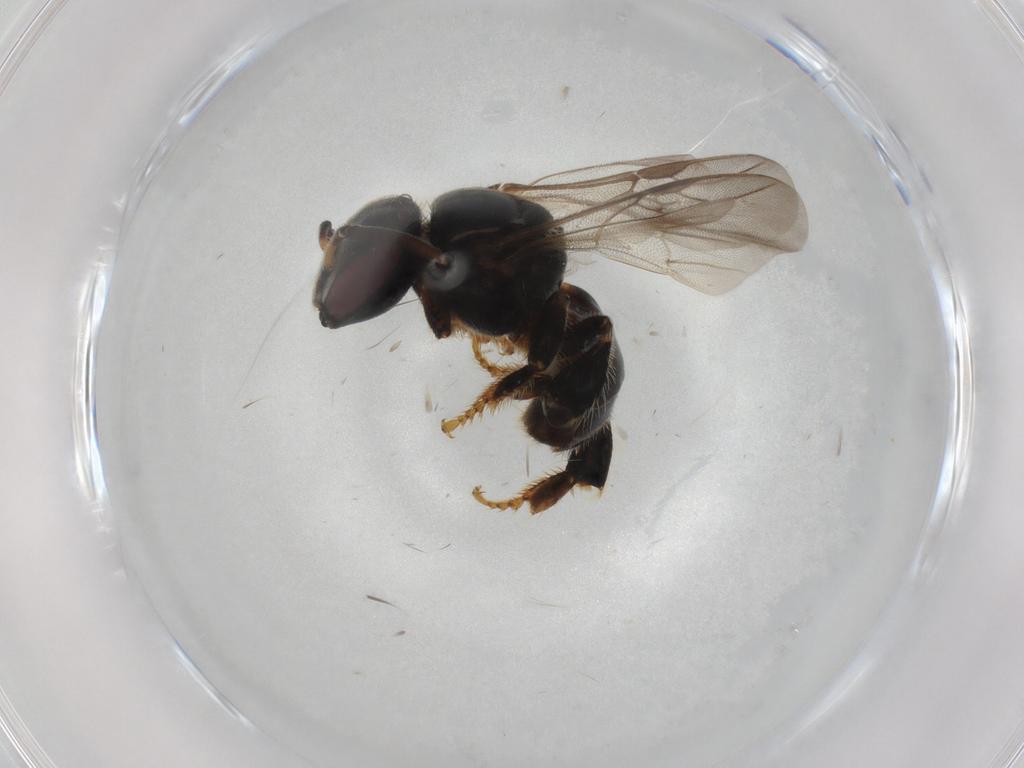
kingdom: Animalia
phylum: Arthropoda
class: Insecta
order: Hymenoptera
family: Apidae
